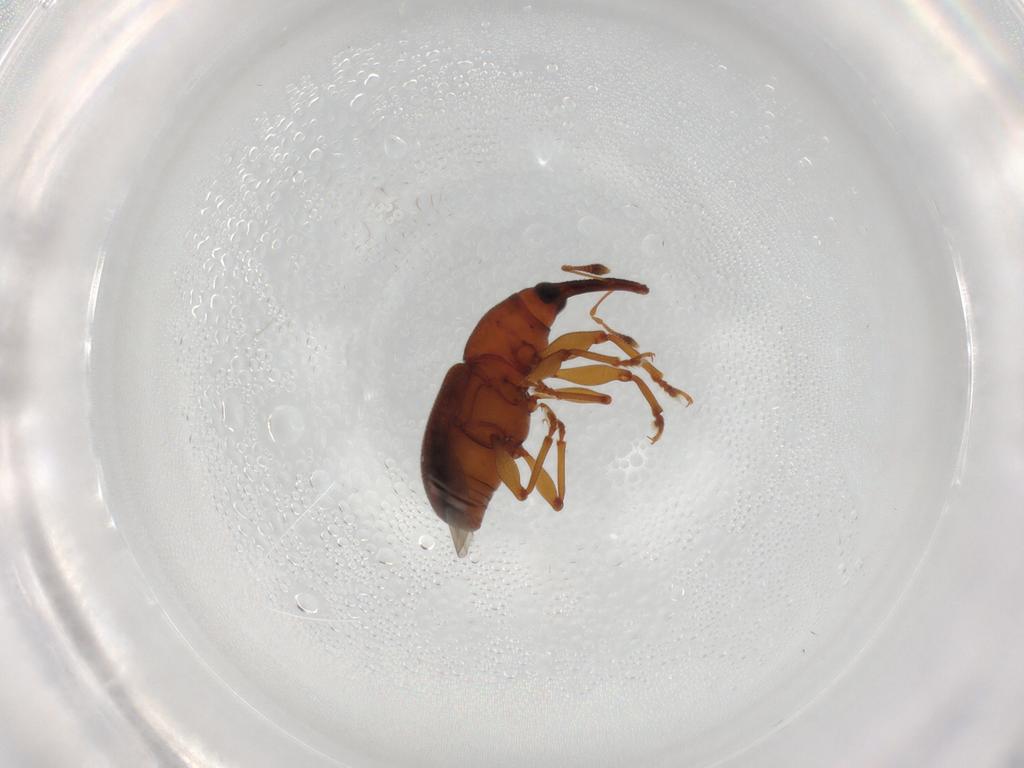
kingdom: Animalia
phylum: Arthropoda
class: Insecta
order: Coleoptera
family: Curculionidae
